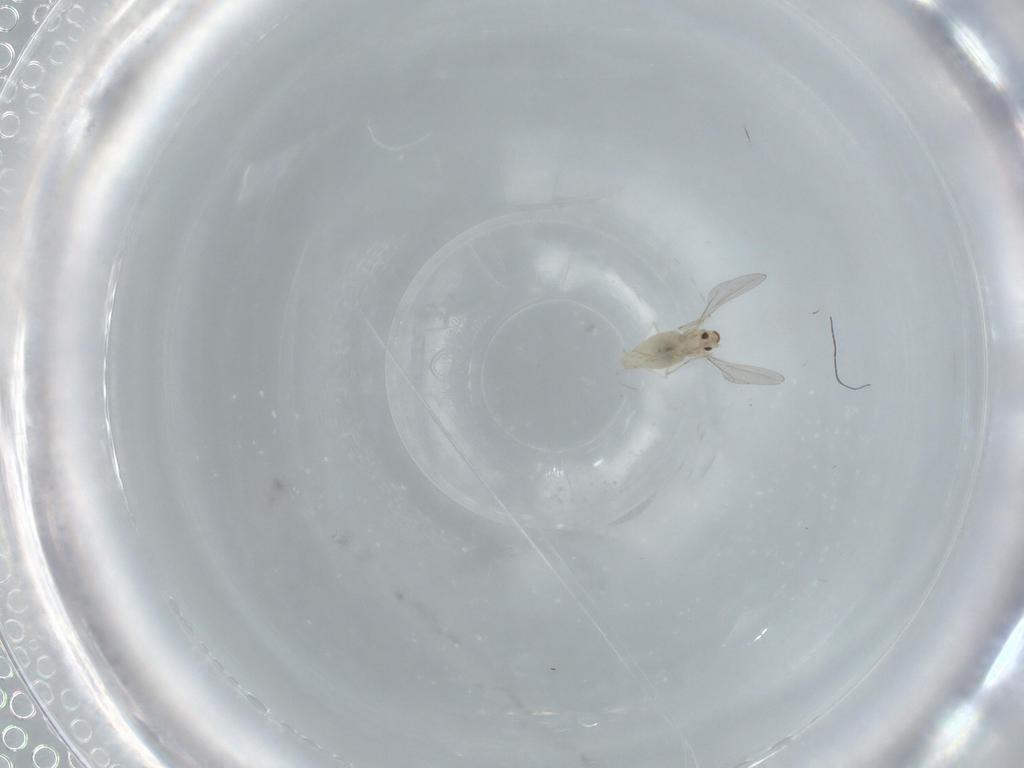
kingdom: Animalia
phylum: Arthropoda
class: Insecta
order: Diptera
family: Cecidomyiidae
